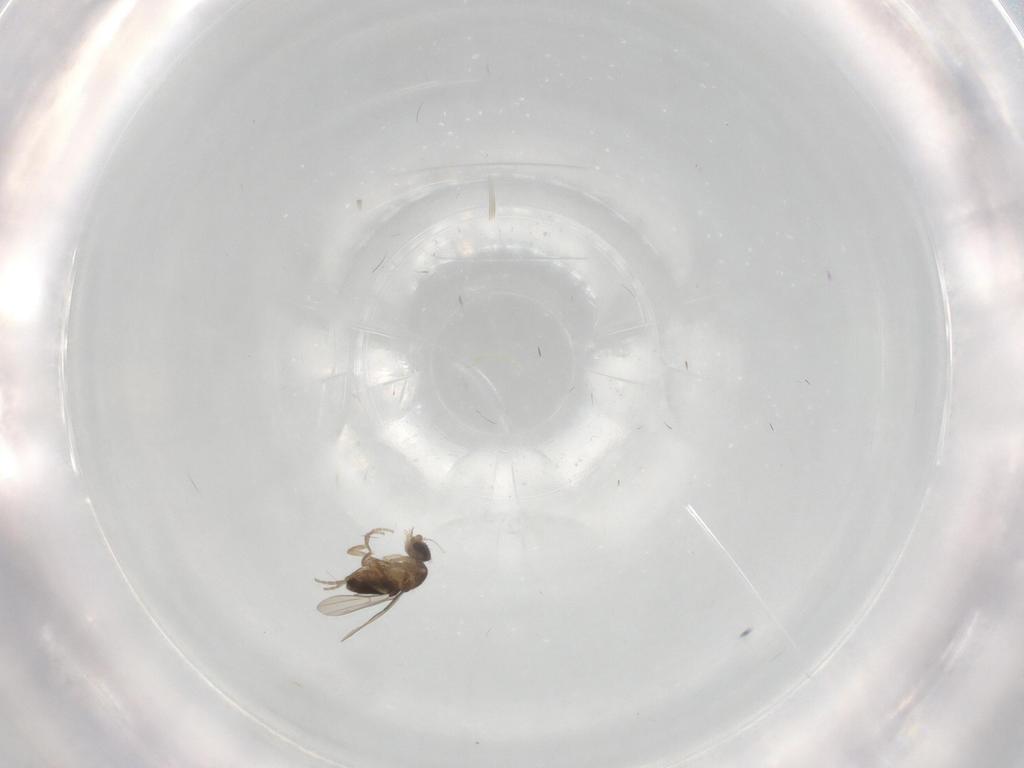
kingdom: Animalia
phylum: Arthropoda
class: Insecta
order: Diptera
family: Phoridae
